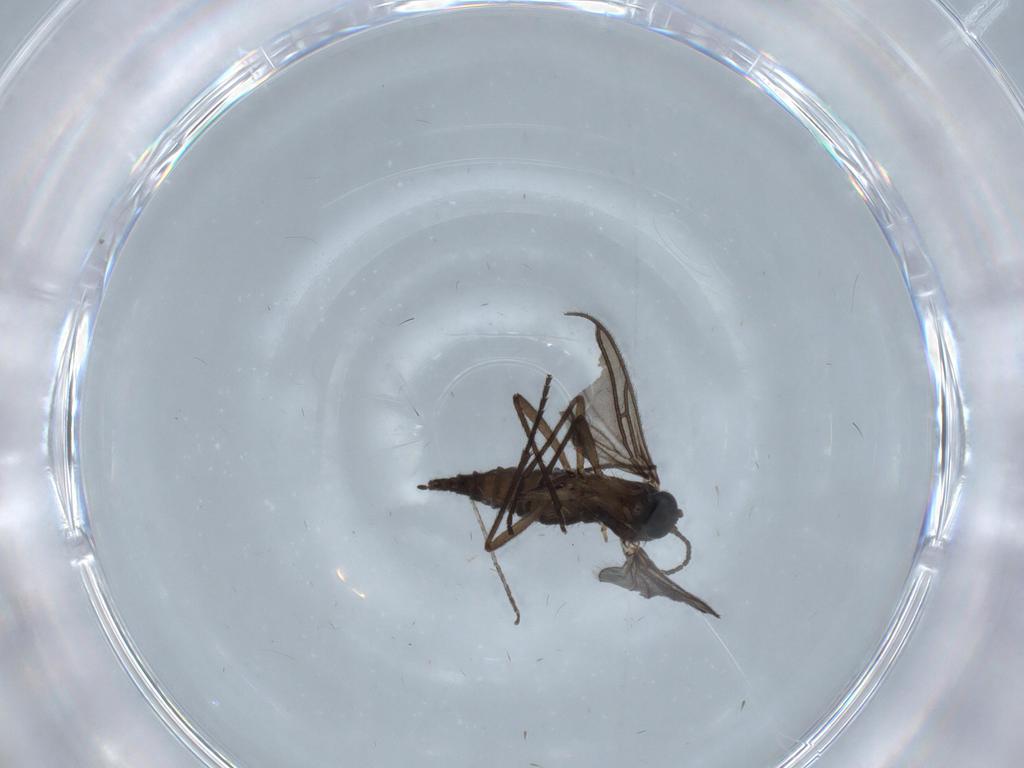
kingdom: Animalia
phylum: Arthropoda
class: Insecta
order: Diptera
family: Sciaridae
